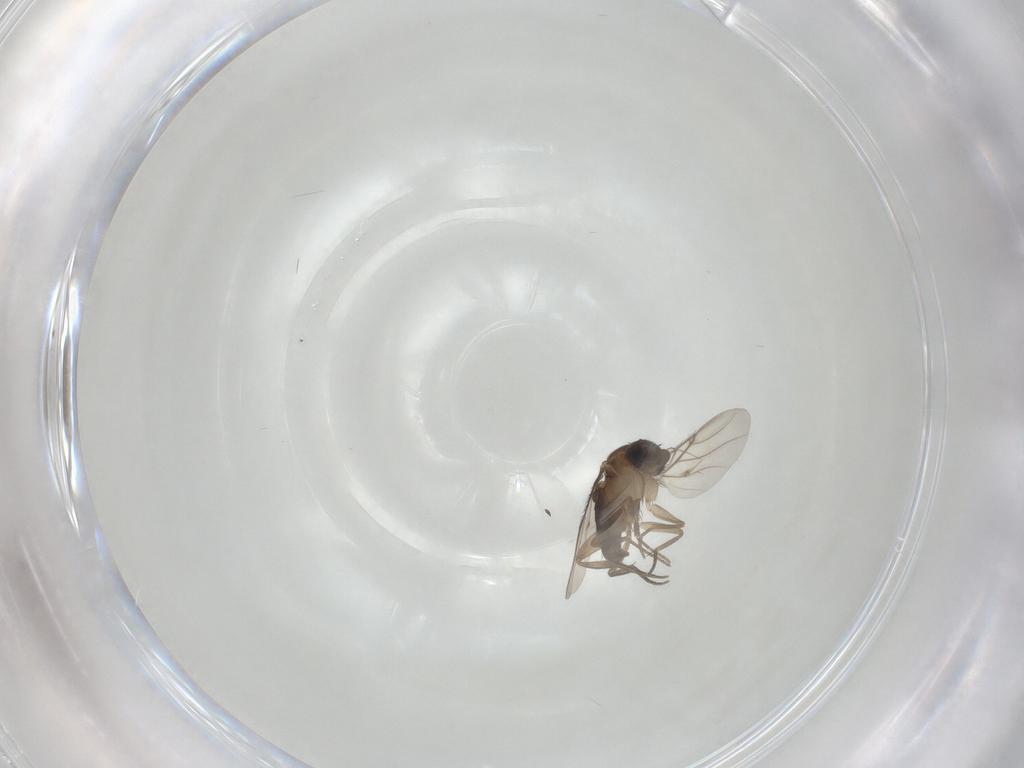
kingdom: Animalia
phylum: Arthropoda
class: Insecta
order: Diptera
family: Phoridae
